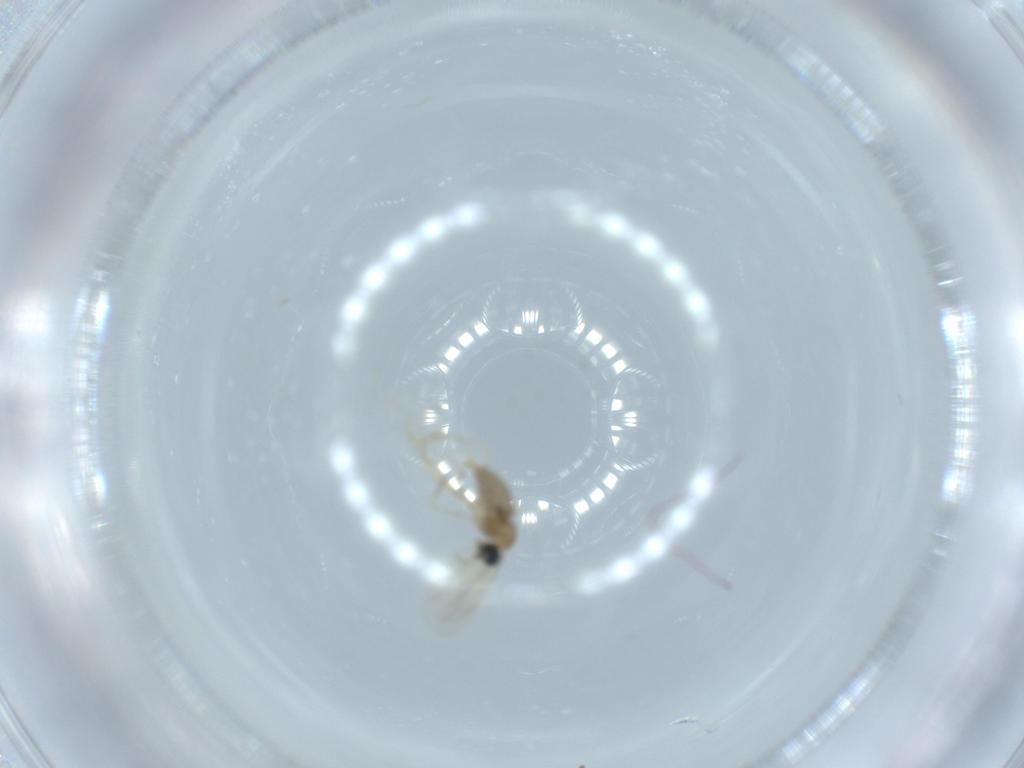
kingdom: Animalia
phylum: Arthropoda
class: Insecta
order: Diptera
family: Cecidomyiidae
